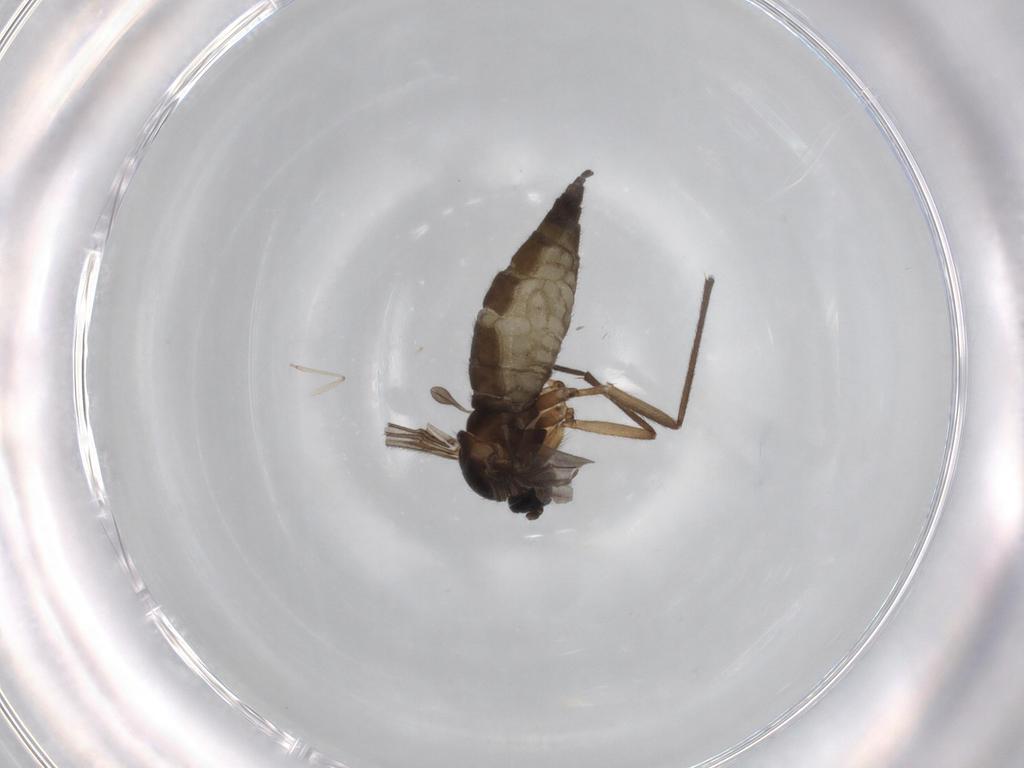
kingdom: Animalia
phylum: Arthropoda
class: Insecta
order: Diptera
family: Sciaridae
